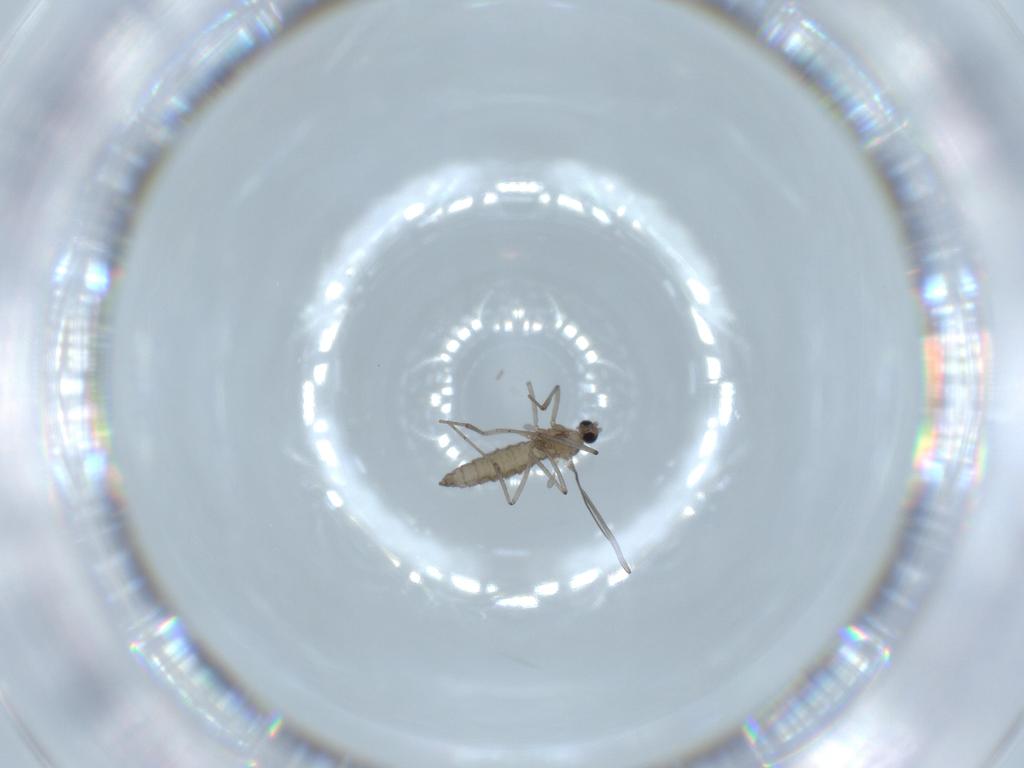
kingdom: Animalia
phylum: Arthropoda
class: Insecta
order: Diptera
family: Cecidomyiidae
